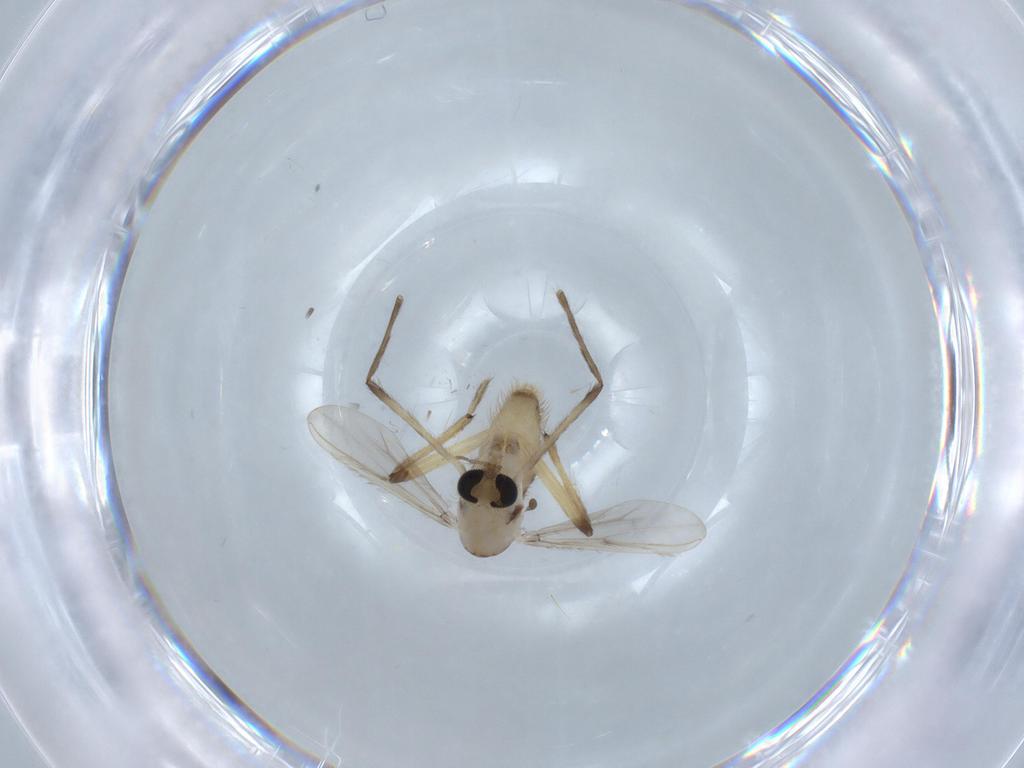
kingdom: Animalia
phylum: Arthropoda
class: Insecta
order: Diptera
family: Chironomidae
